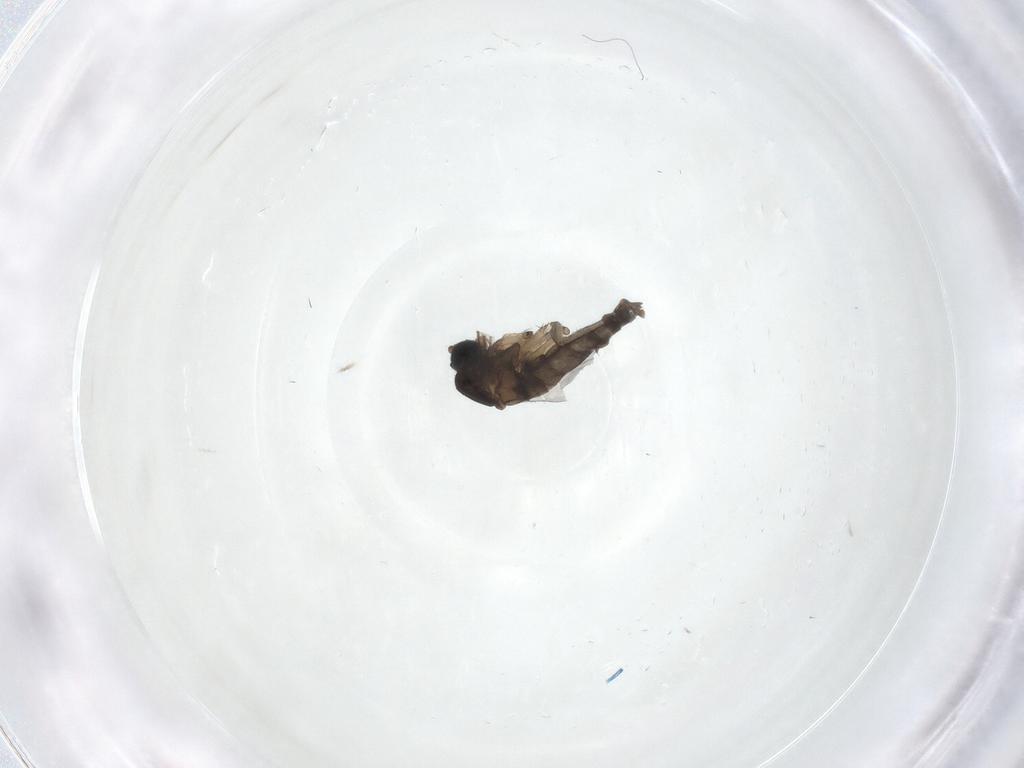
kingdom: Animalia
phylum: Arthropoda
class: Insecta
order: Diptera
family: Sciaridae
